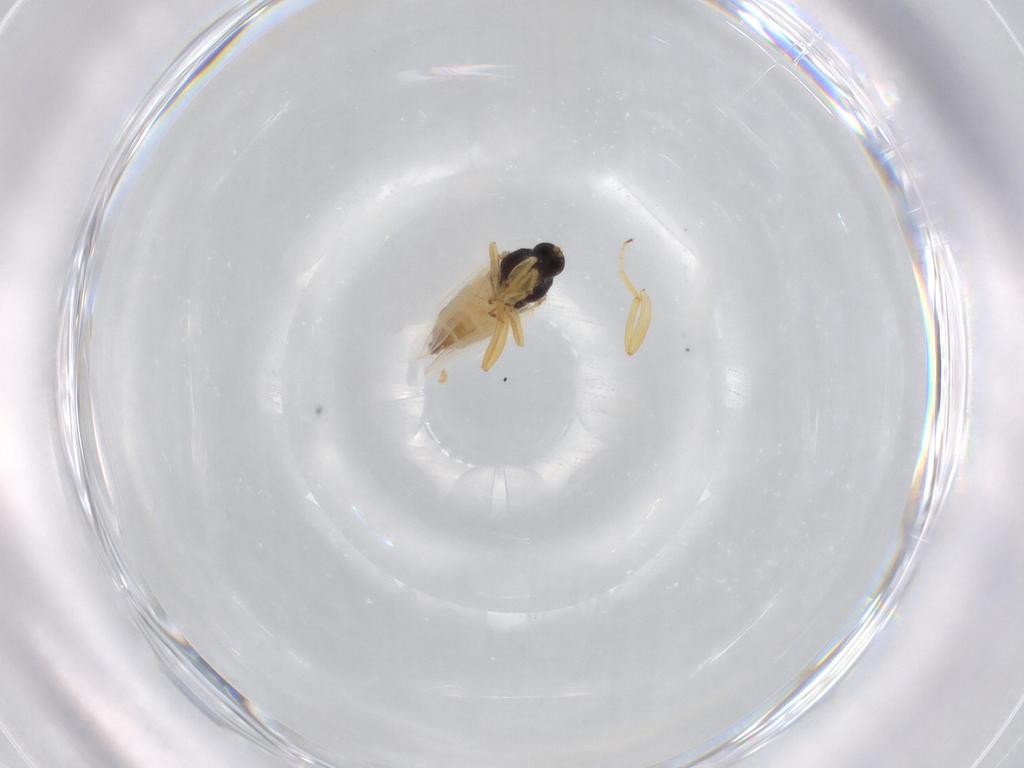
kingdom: Animalia
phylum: Arthropoda
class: Insecta
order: Diptera
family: Hybotidae
